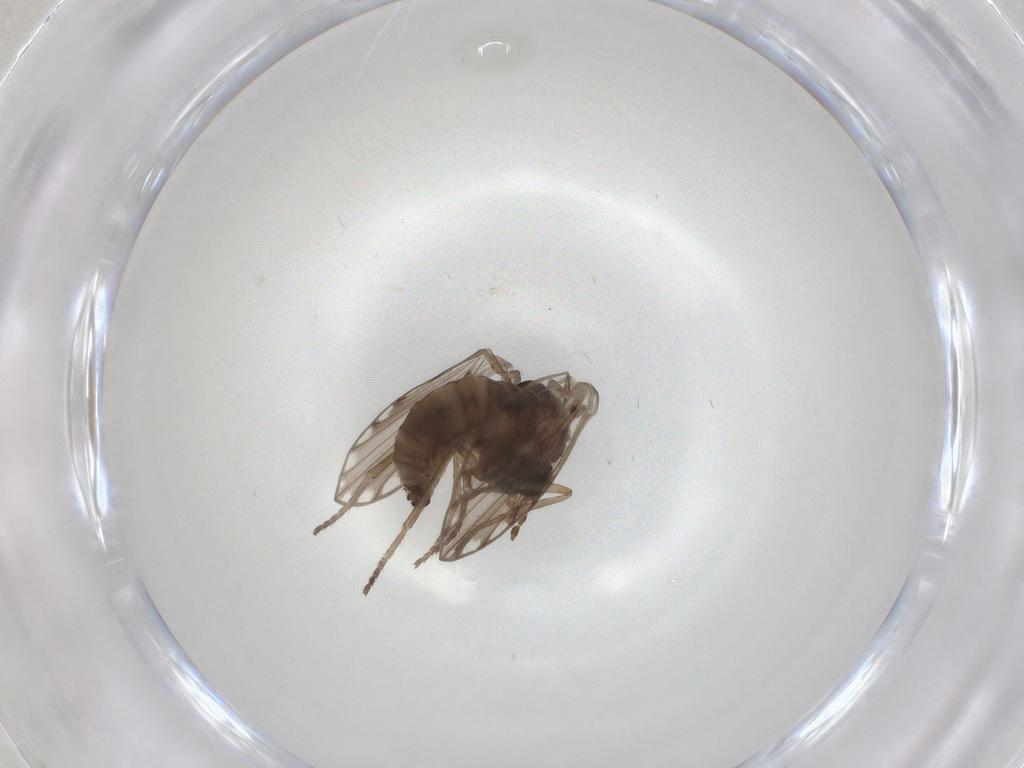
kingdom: Animalia
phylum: Arthropoda
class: Insecta
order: Diptera
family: Psychodidae
